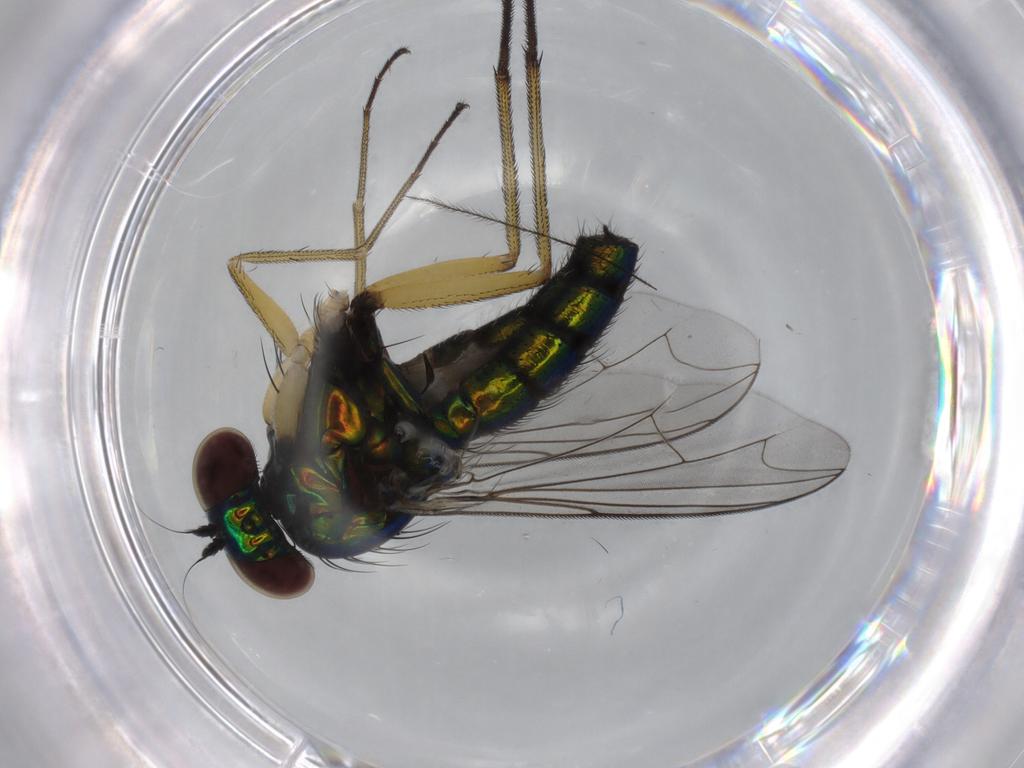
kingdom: Animalia
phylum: Arthropoda
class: Insecta
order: Diptera
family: Dolichopodidae
